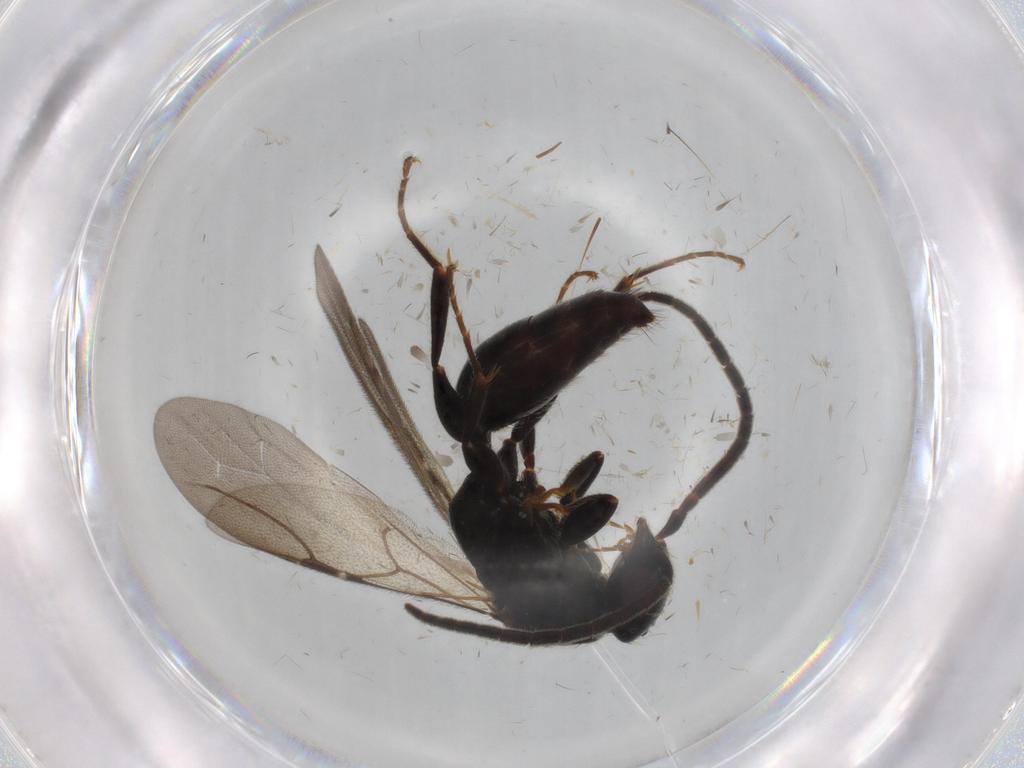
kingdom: Animalia
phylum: Arthropoda
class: Insecta
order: Hymenoptera
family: Bethylidae
